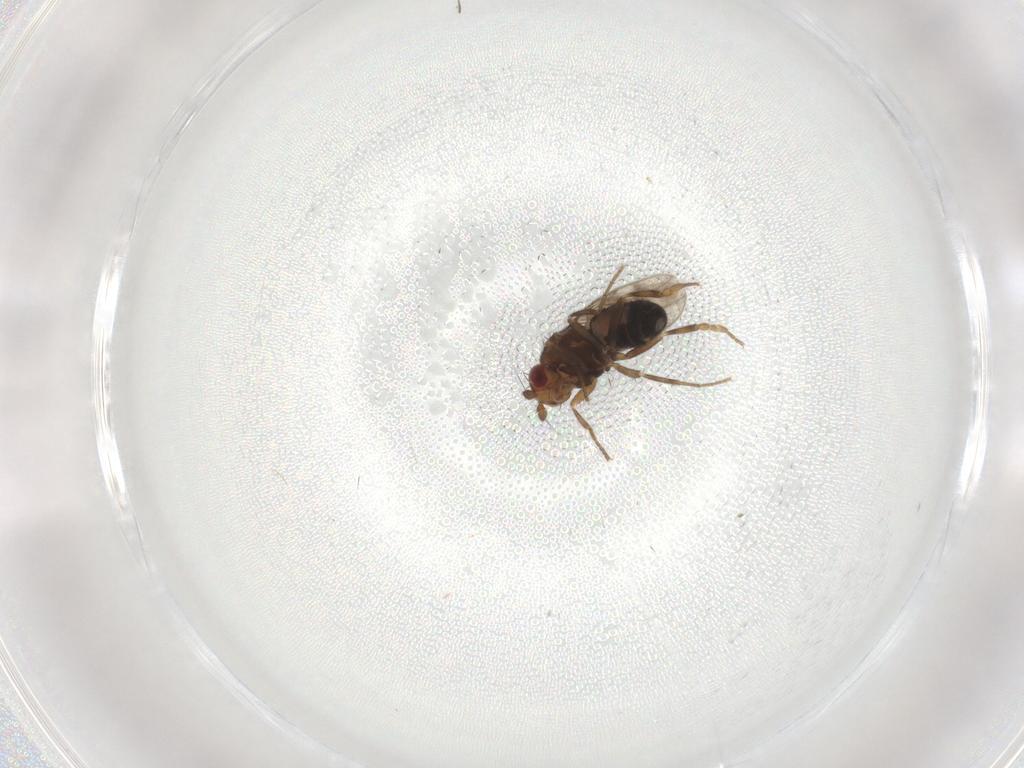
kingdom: Animalia
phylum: Arthropoda
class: Insecta
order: Diptera
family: Sphaeroceridae
